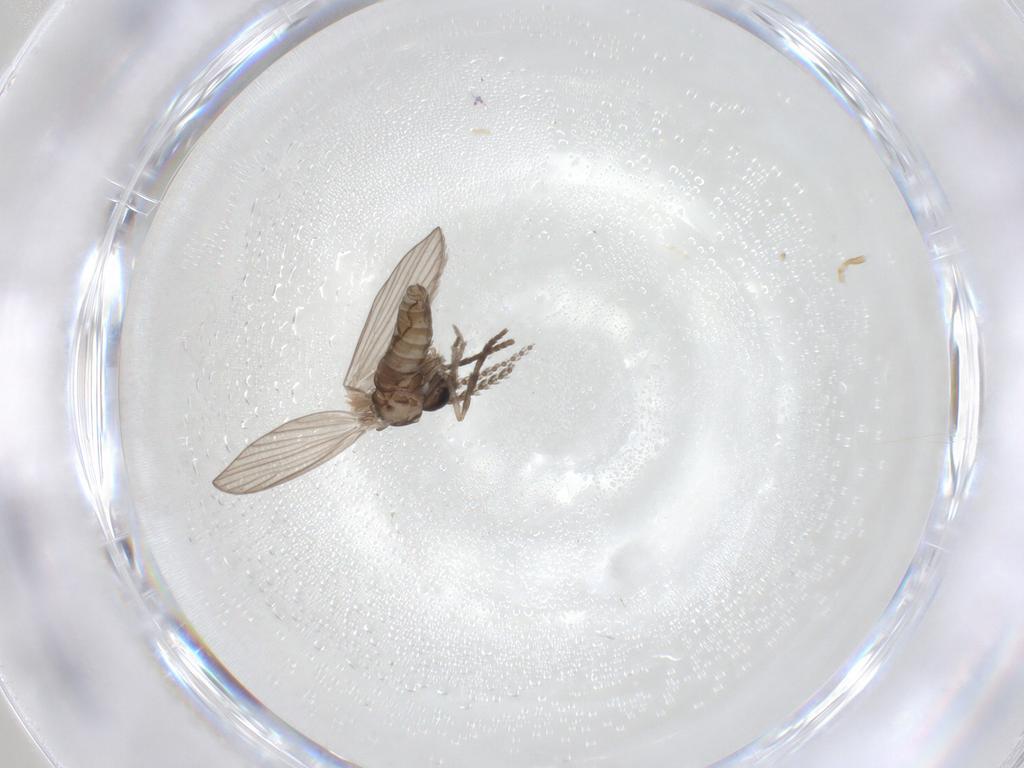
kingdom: Animalia
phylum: Arthropoda
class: Insecta
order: Diptera
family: Psychodidae
